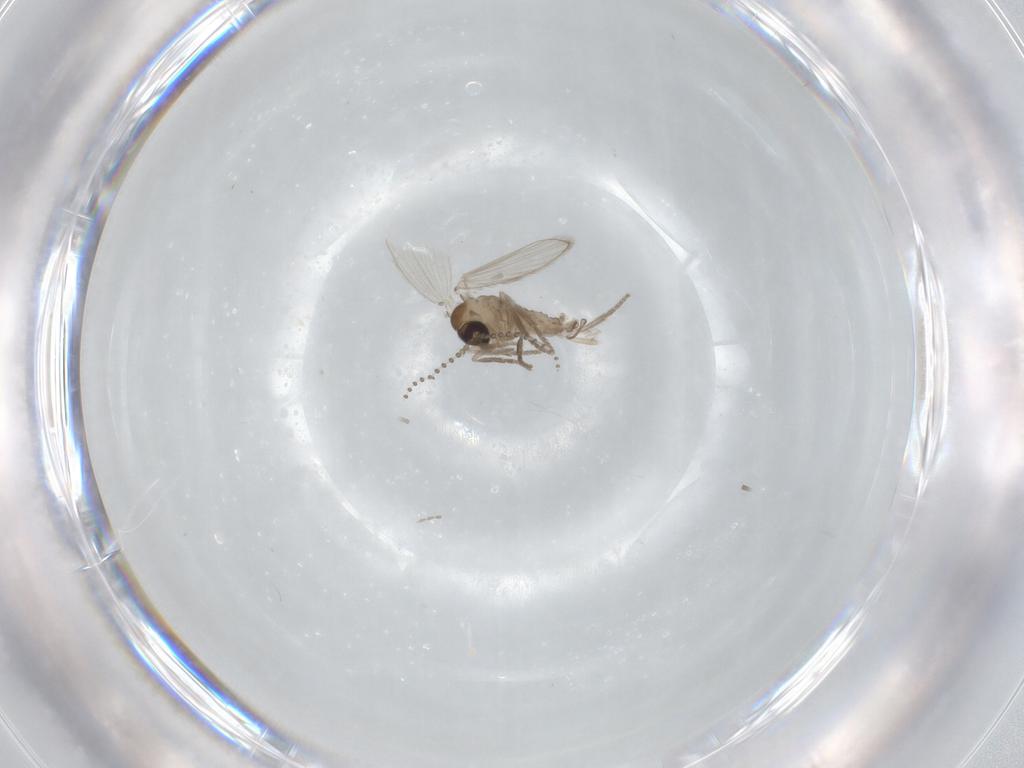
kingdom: Animalia
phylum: Arthropoda
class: Insecta
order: Diptera
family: Psychodidae
